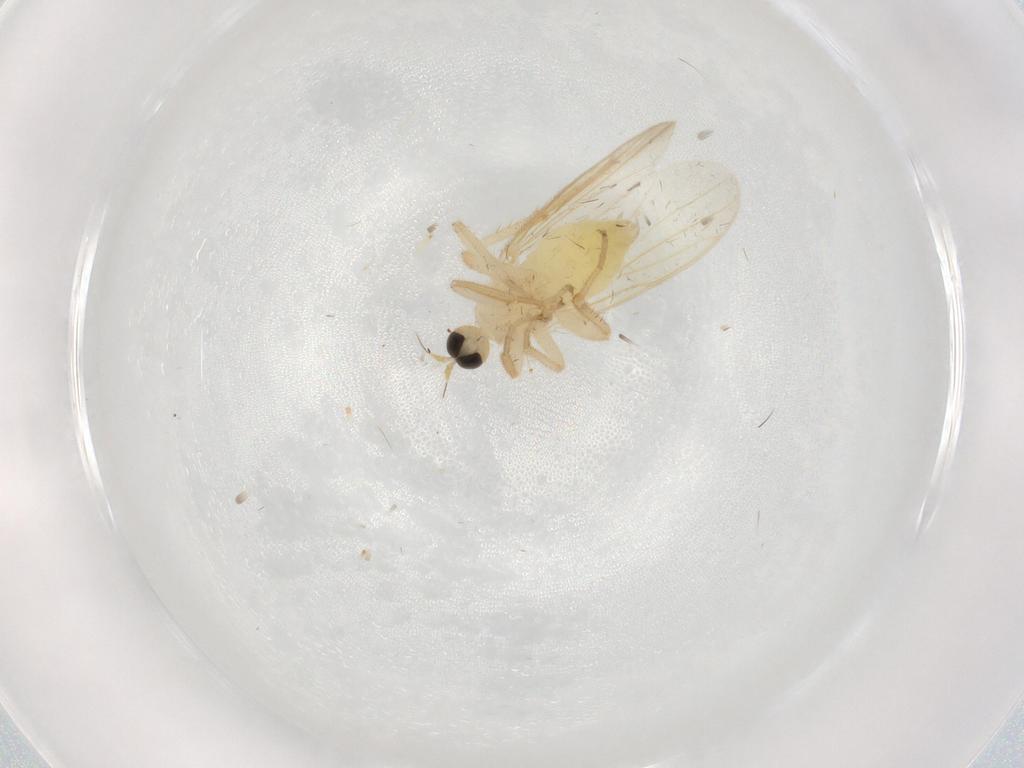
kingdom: Animalia
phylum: Arthropoda
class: Insecta
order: Diptera
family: Hybotidae
